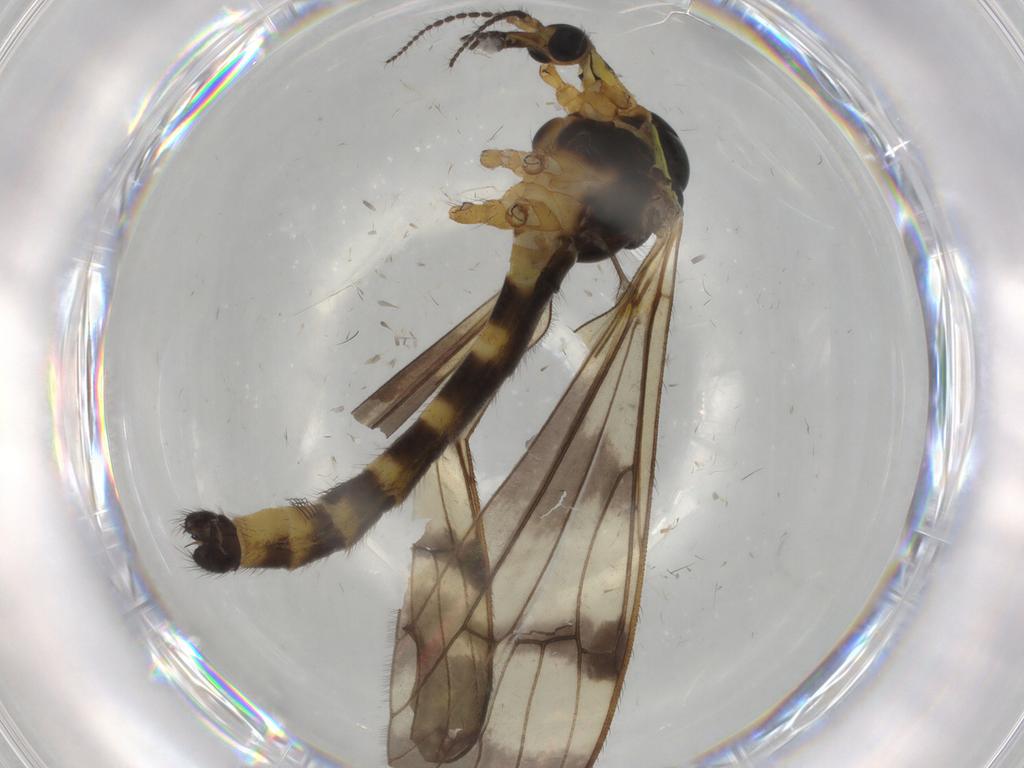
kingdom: Animalia
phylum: Arthropoda
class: Insecta
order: Diptera
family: Limoniidae
